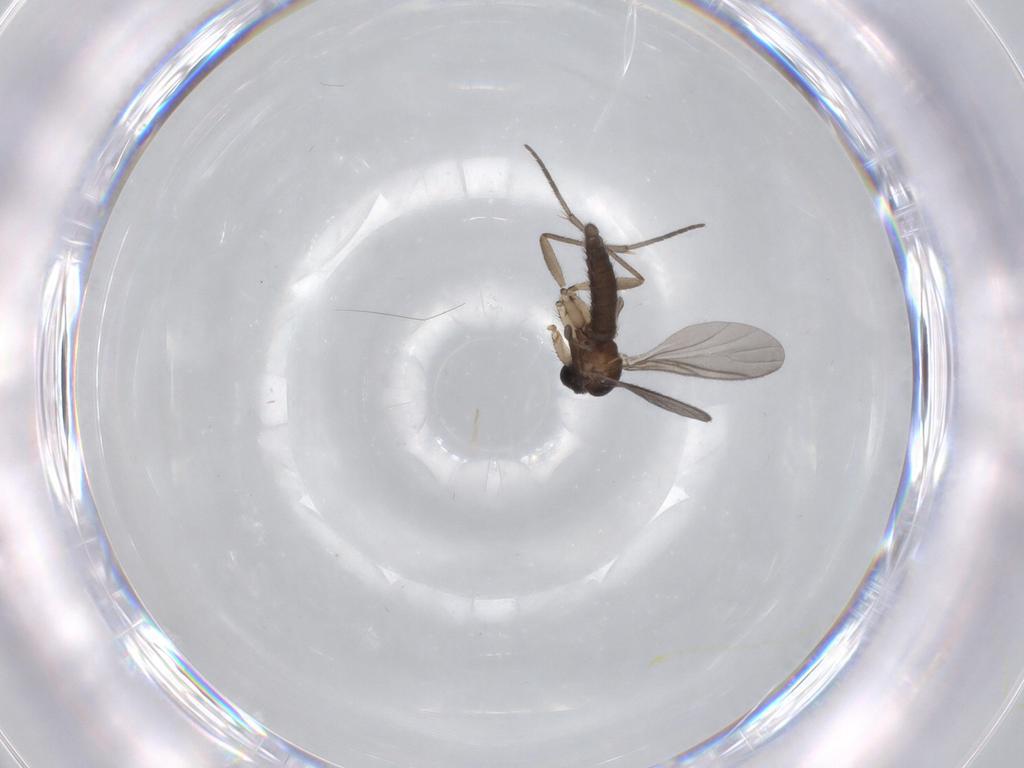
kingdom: Animalia
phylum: Arthropoda
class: Insecta
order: Diptera
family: Sciaridae
